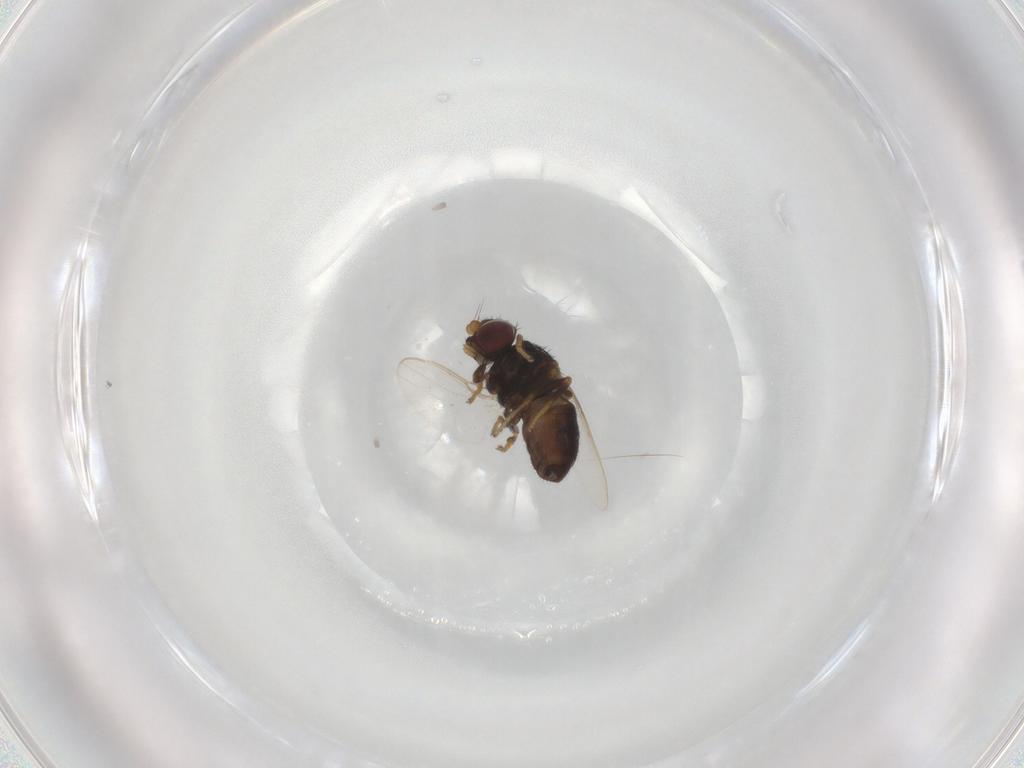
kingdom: Animalia
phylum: Arthropoda
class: Insecta
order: Diptera
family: Chloropidae
